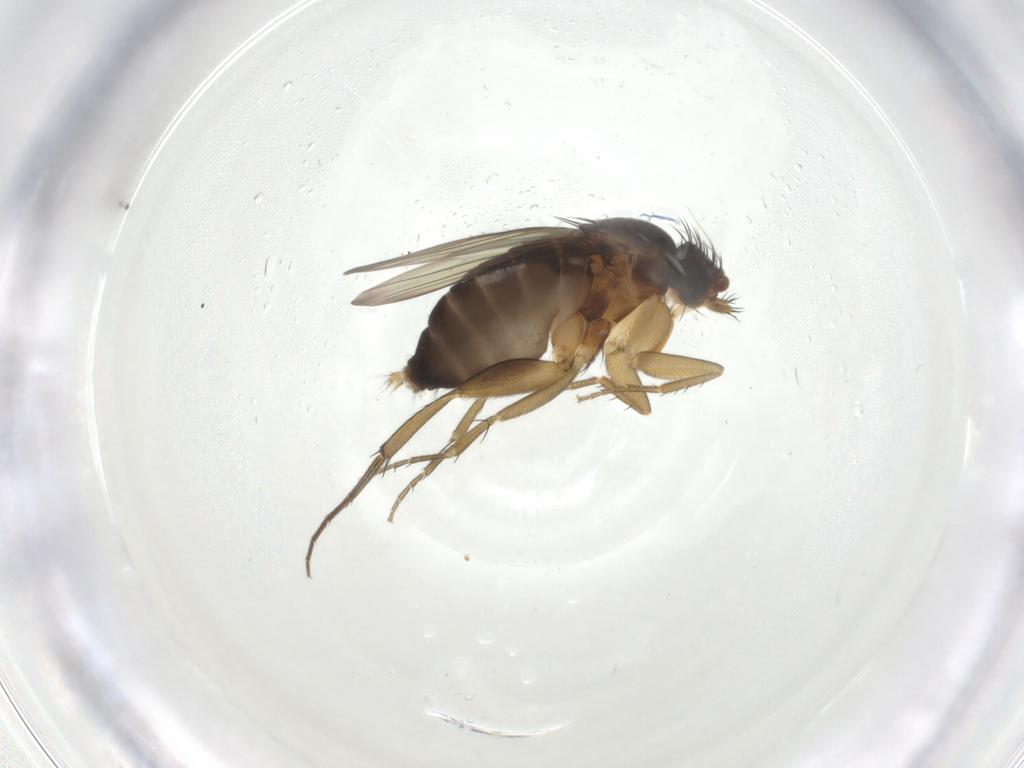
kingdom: Animalia
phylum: Arthropoda
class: Insecta
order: Diptera
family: Phoridae
